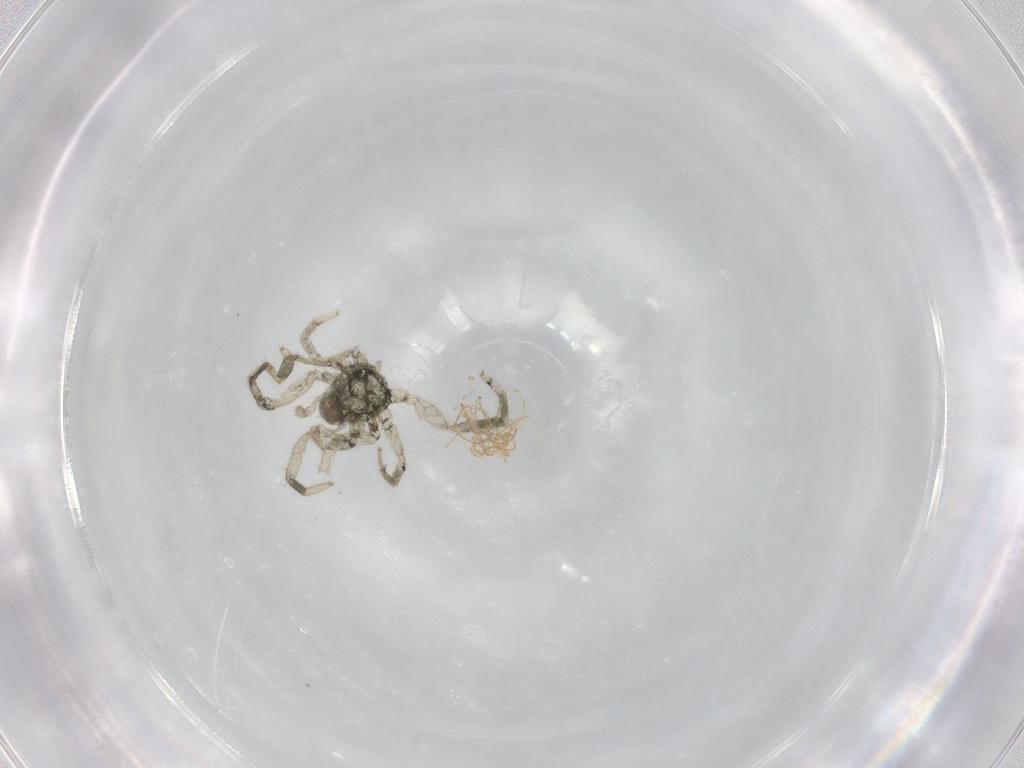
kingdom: Animalia
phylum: Arthropoda
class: Arachnida
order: Araneae
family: Gnaphosidae
